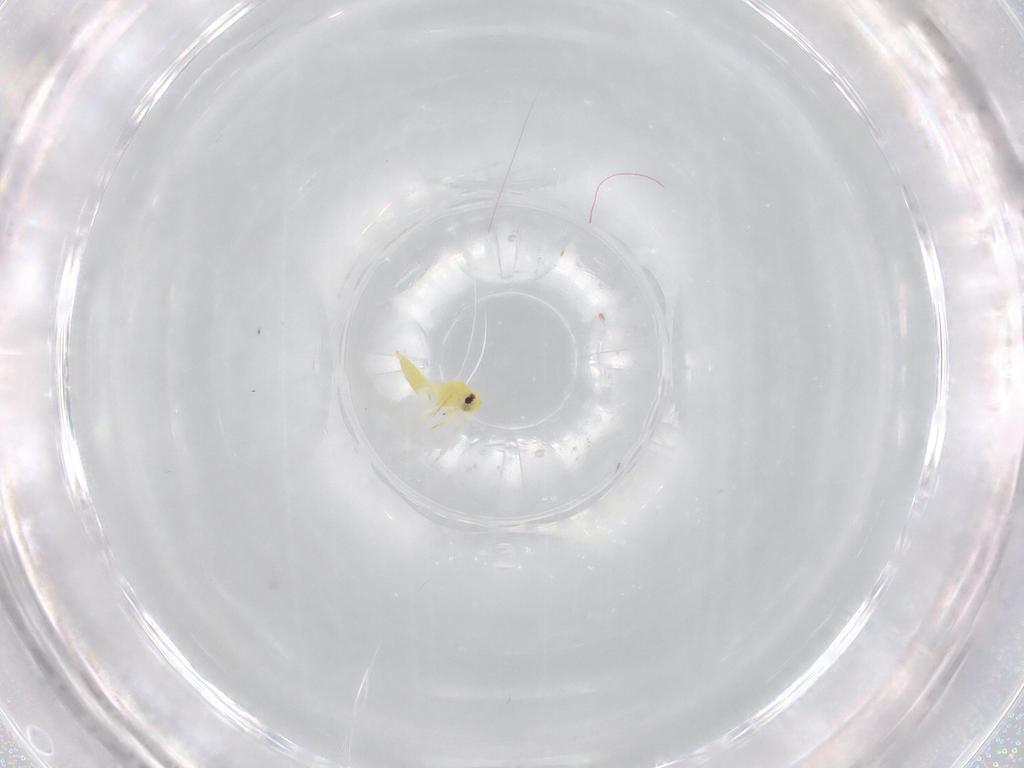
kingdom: Animalia
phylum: Arthropoda
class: Insecta
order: Hemiptera
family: Aleyrodidae
